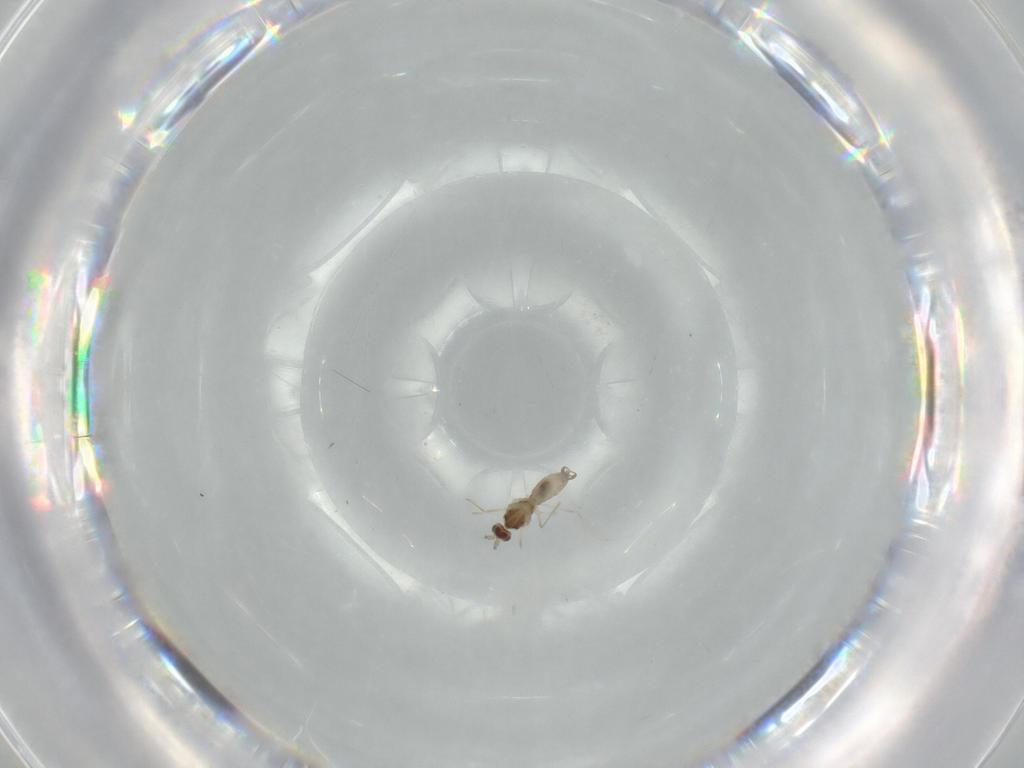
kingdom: Animalia
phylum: Arthropoda
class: Insecta
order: Diptera
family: Cecidomyiidae
